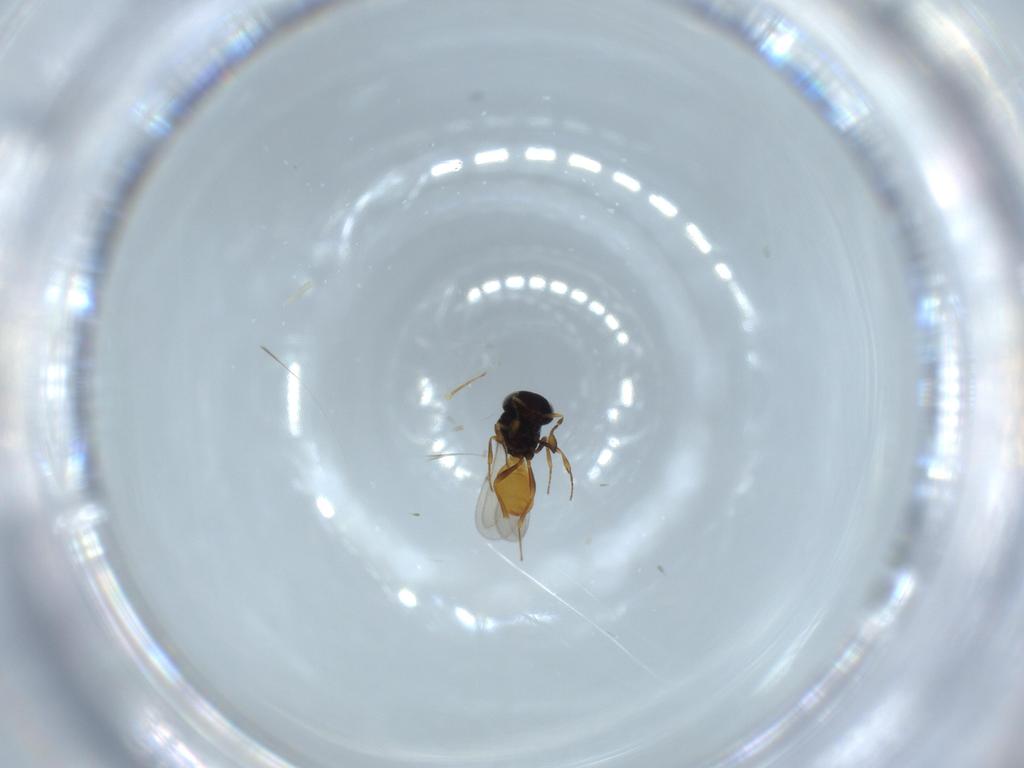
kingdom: Animalia
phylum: Arthropoda
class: Insecta
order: Hymenoptera
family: Scelionidae
